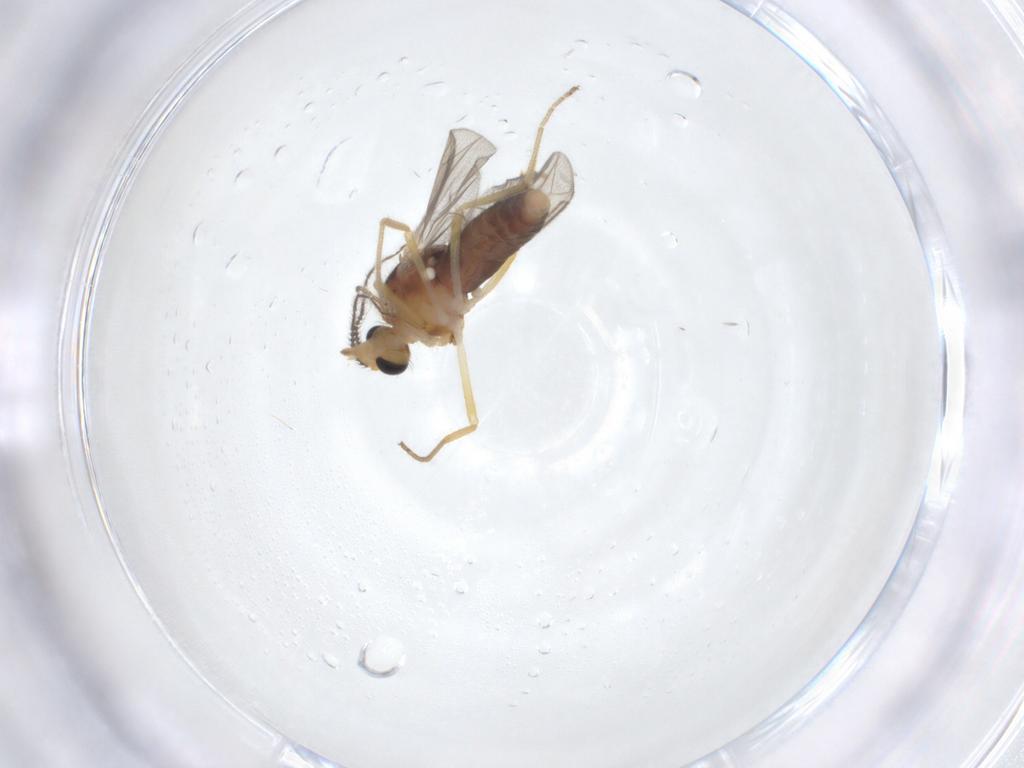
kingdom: Animalia
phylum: Arthropoda
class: Insecta
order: Diptera
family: Ceratopogonidae
